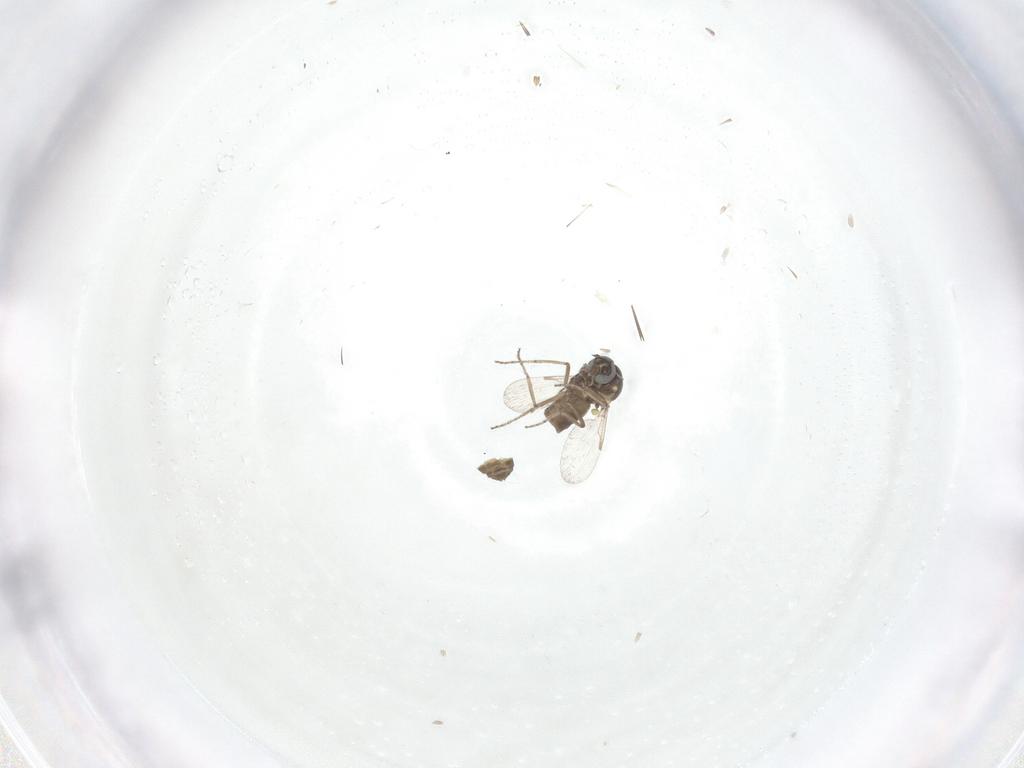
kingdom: Animalia
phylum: Arthropoda
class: Insecta
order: Diptera
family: Ceratopogonidae
